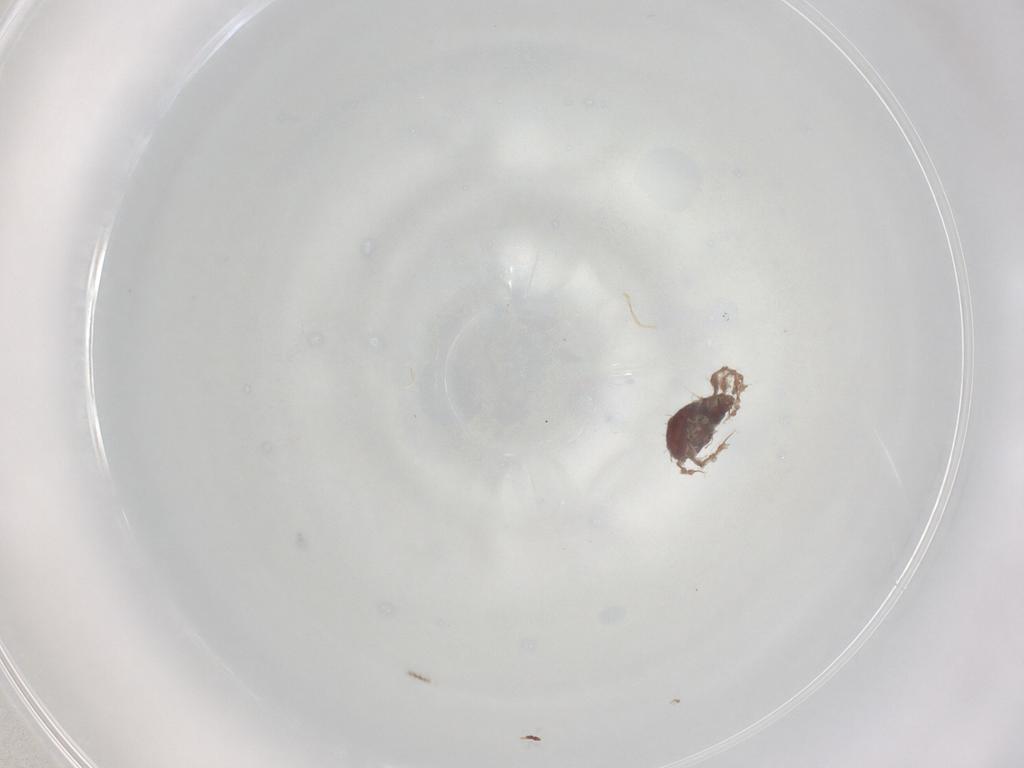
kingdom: Animalia
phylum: Arthropoda
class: Arachnida
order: Sarcoptiformes
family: Damaeidae
